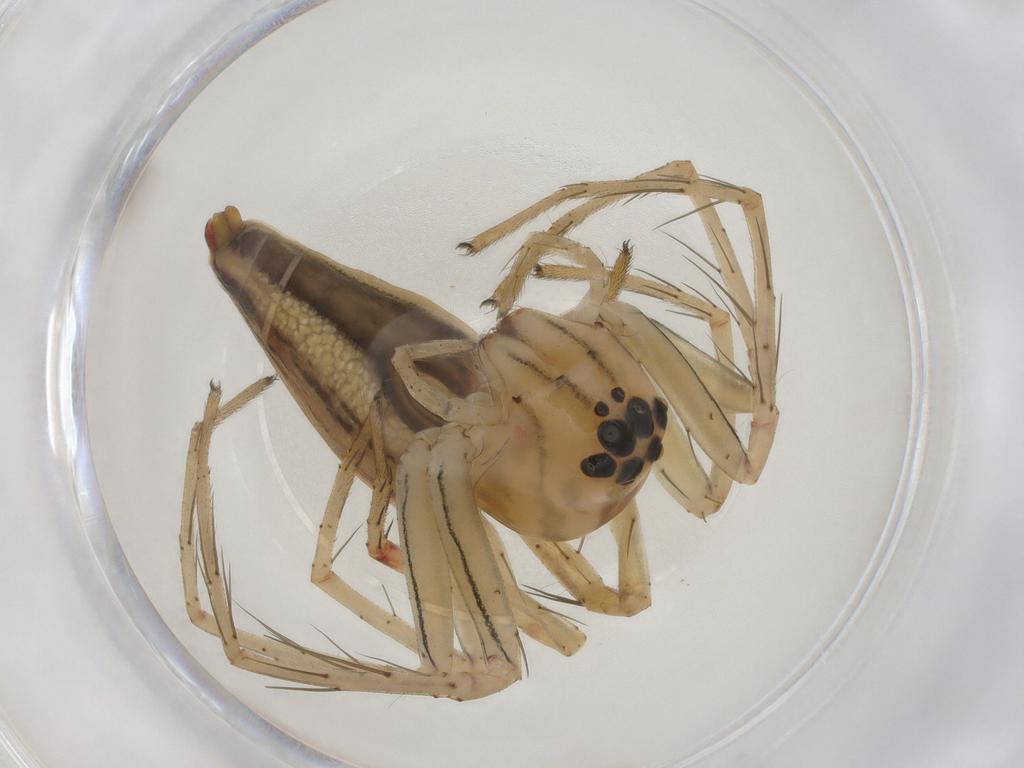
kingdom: Animalia
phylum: Arthropoda
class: Arachnida
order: Araneae
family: Oxyopidae
